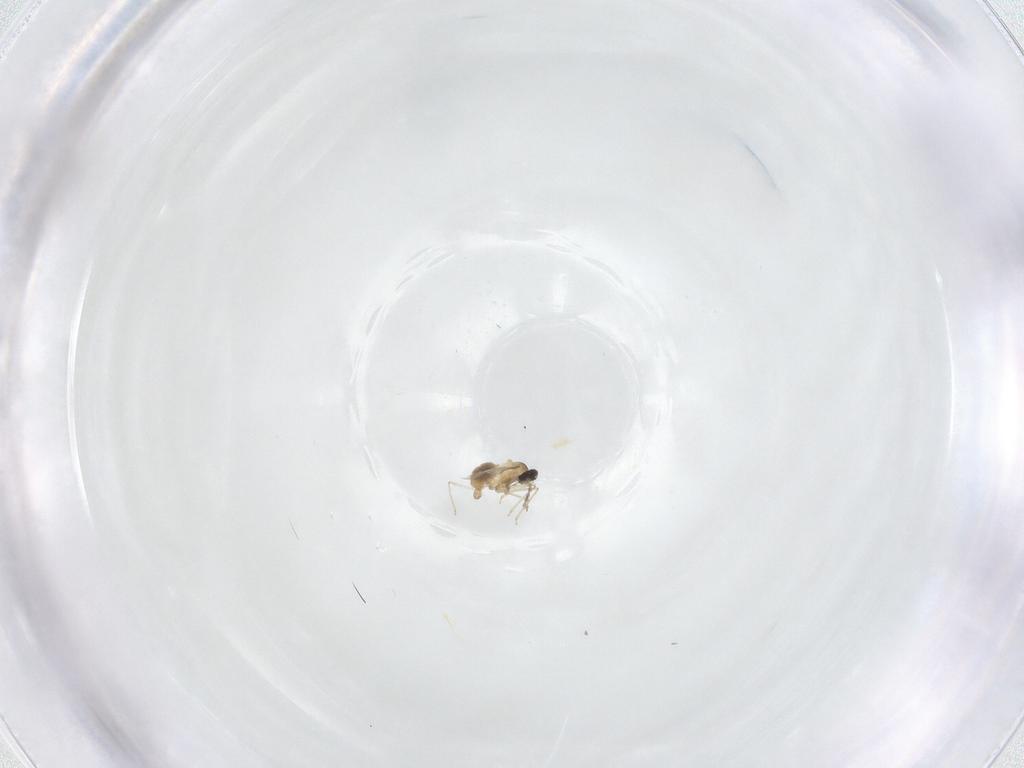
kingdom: Animalia
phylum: Arthropoda
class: Insecta
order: Diptera
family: Cecidomyiidae
